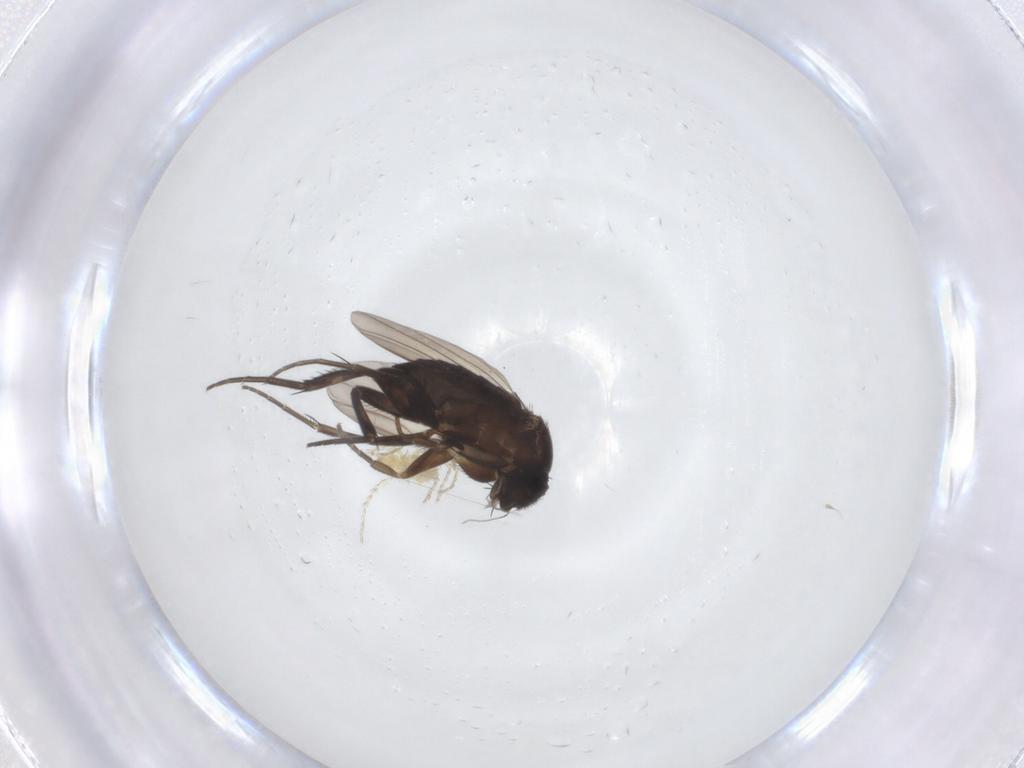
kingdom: Animalia
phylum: Arthropoda
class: Insecta
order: Diptera
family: Phoridae
